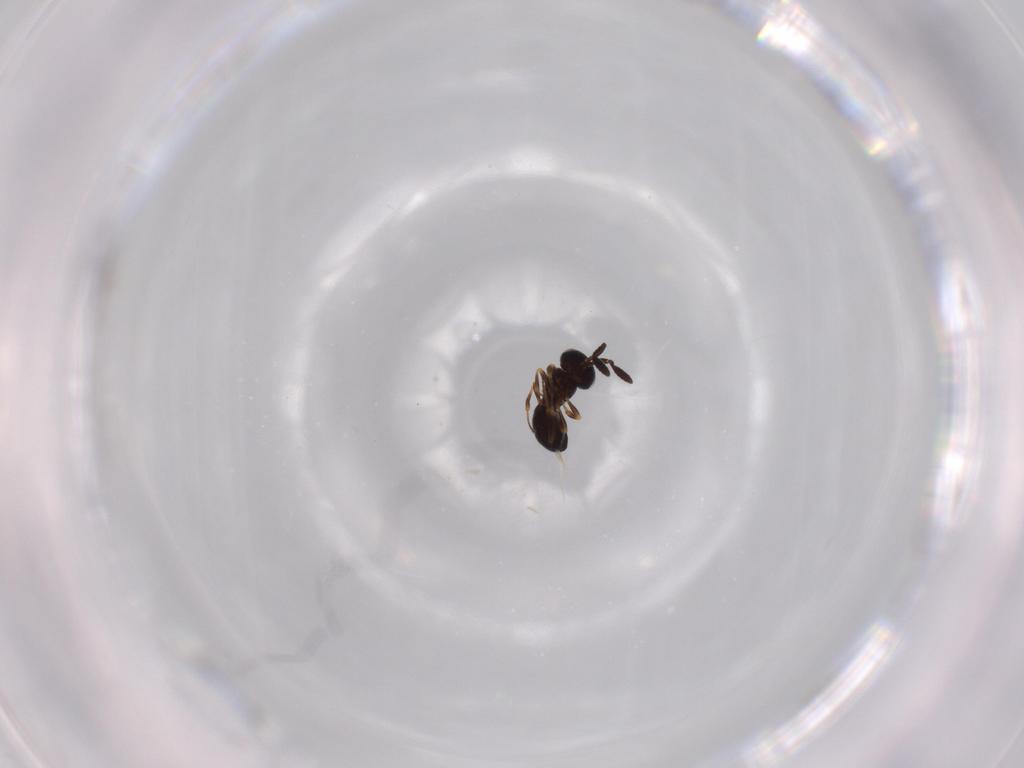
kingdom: Animalia
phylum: Arthropoda
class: Insecta
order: Hymenoptera
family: Scelionidae
